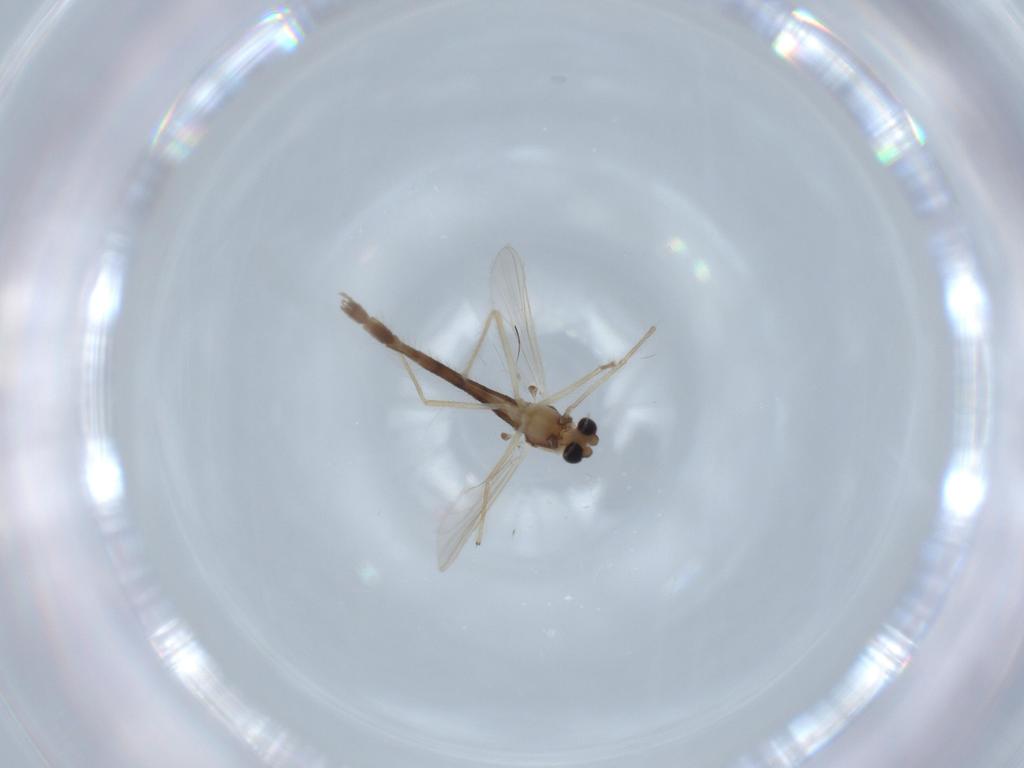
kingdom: Animalia
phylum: Arthropoda
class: Insecta
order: Diptera
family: Chironomidae
